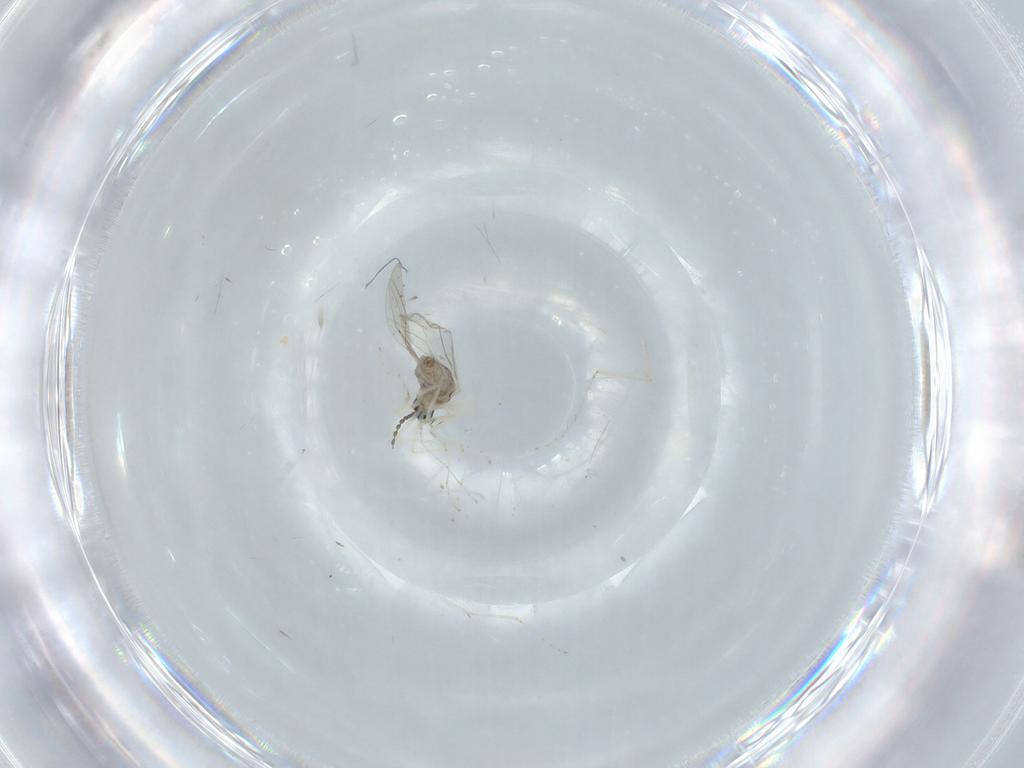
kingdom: Animalia
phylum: Arthropoda
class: Insecta
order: Diptera
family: Cecidomyiidae
